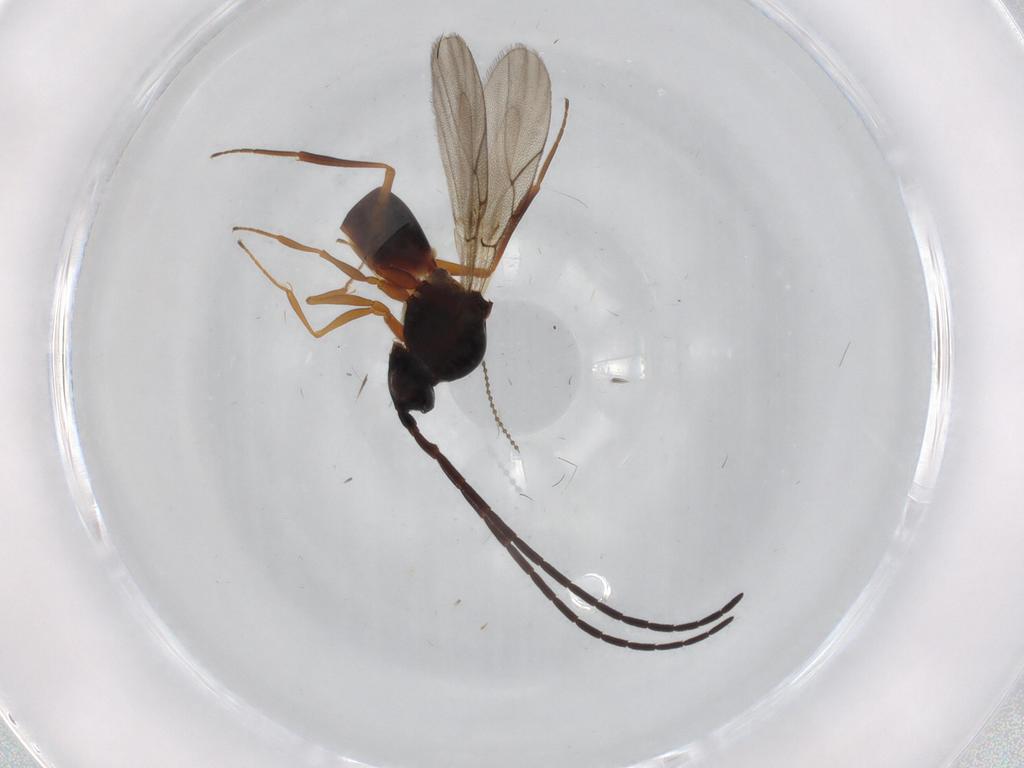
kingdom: Animalia
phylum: Arthropoda
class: Insecta
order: Hymenoptera
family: Figitidae
